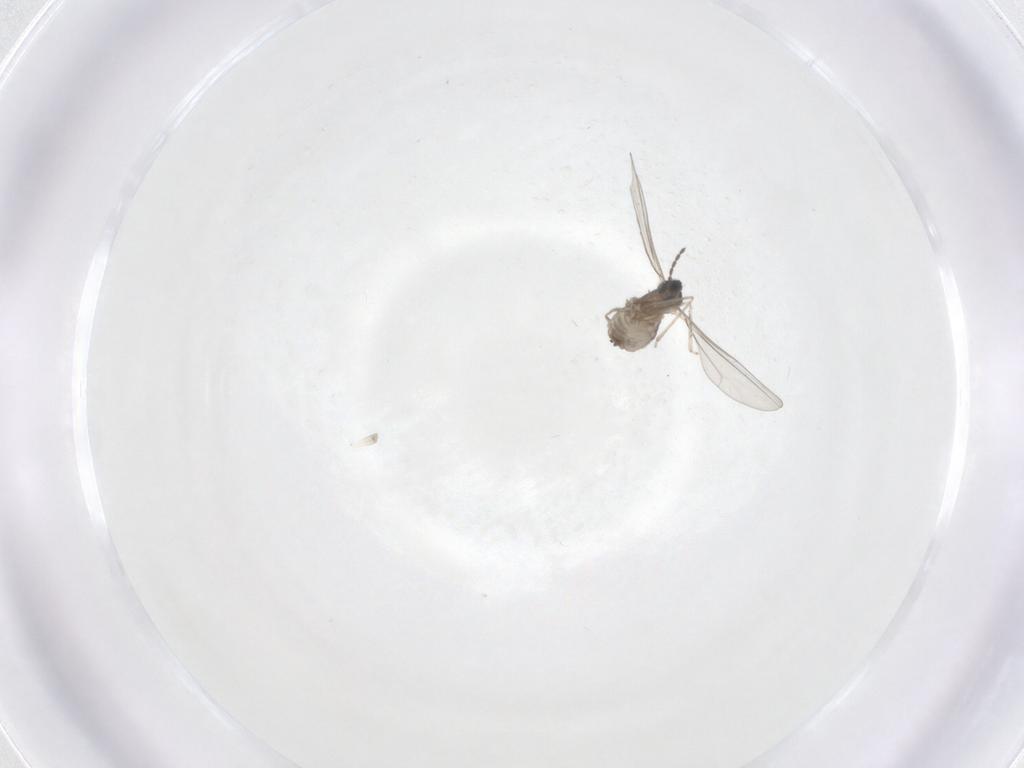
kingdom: Animalia
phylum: Arthropoda
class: Insecta
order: Diptera
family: Cecidomyiidae
